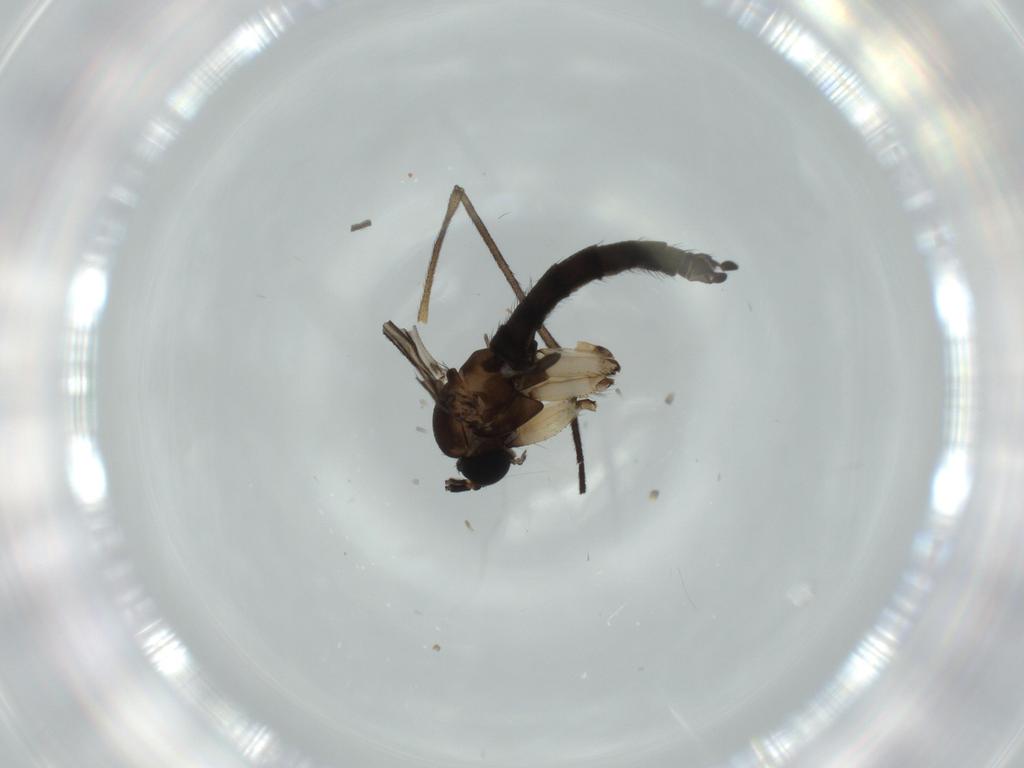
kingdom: Animalia
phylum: Arthropoda
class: Insecta
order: Diptera
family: Sciaridae
